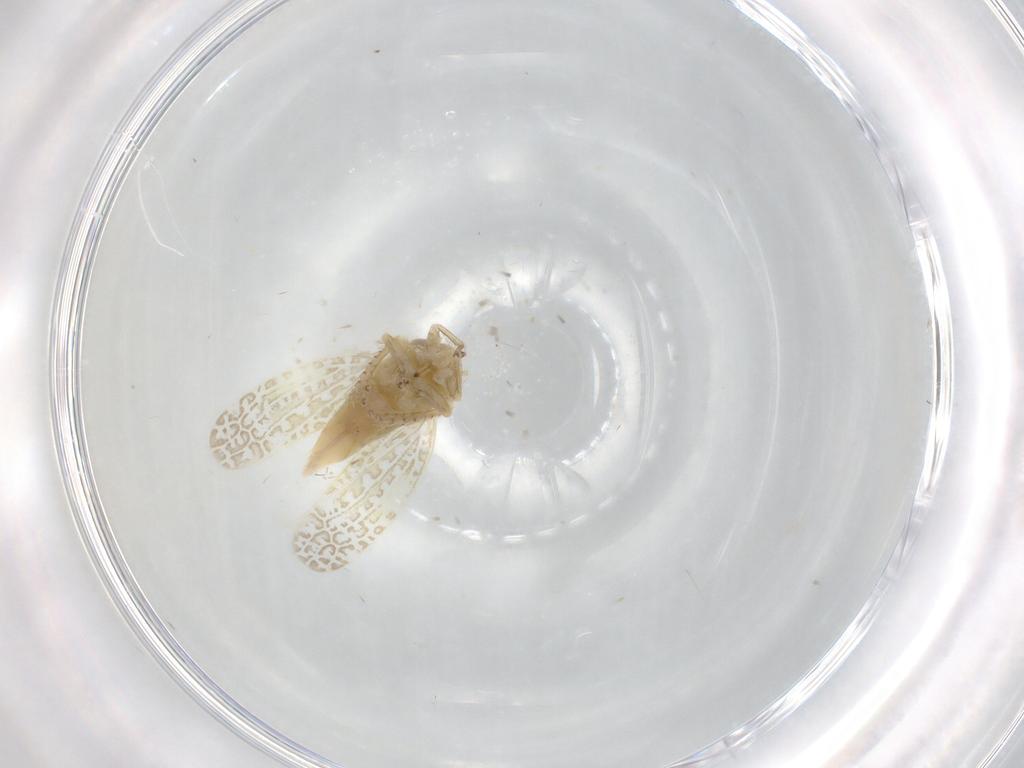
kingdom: Animalia
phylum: Arthropoda
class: Insecta
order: Hemiptera
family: Cicadellidae
